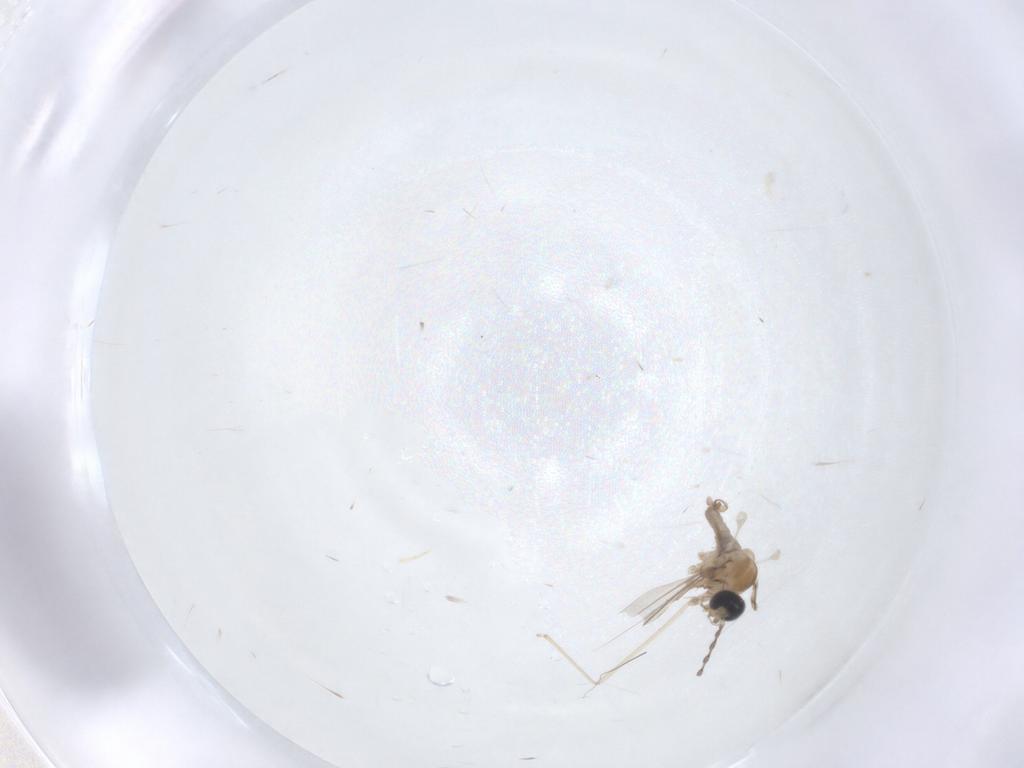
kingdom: Animalia
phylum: Arthropoda
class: Insecta
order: Diptera
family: Cecidomyiidae
